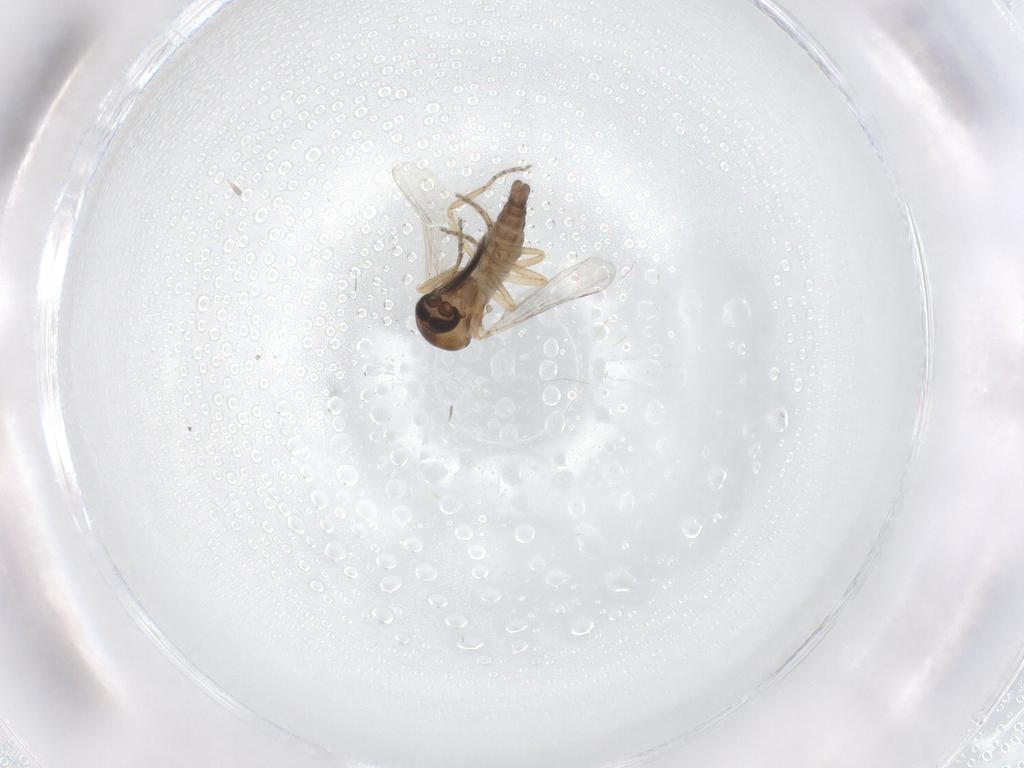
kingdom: Animalia
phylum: Arthropoda
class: Insecta
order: Diptera
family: Ceratopogonidae
